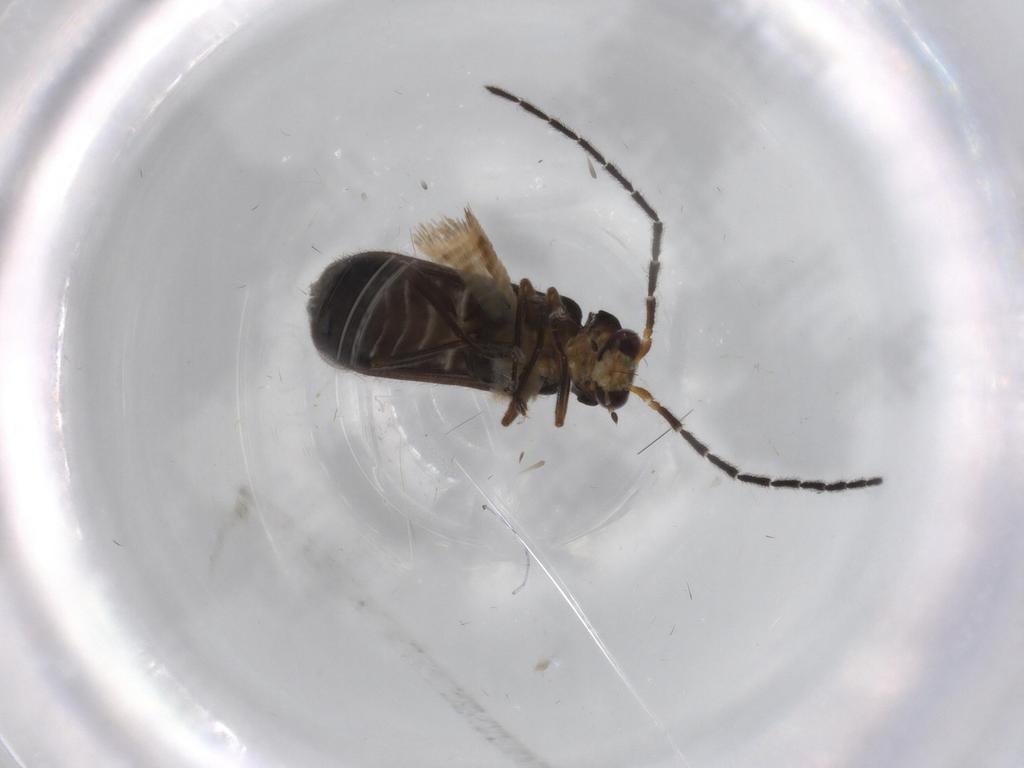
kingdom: Animalia
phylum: Arthropoda
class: Insecta
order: Coleoptera
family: Cantharidae
